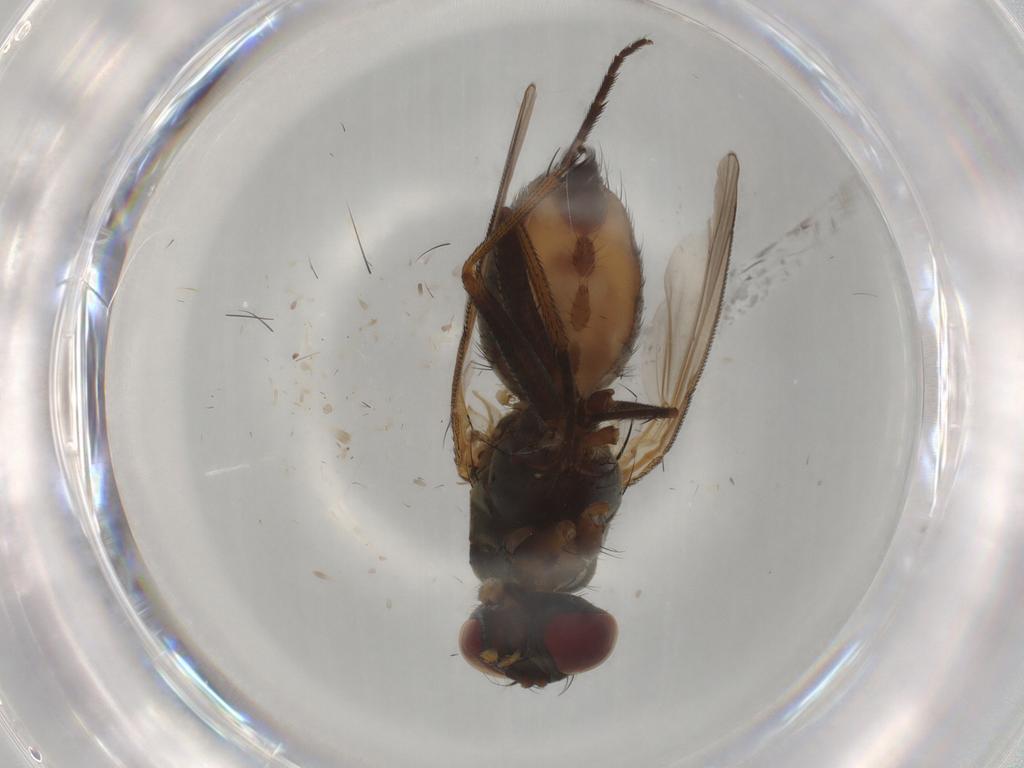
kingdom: Animalia
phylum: Arthropoda
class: Insecta
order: Diptera
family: Muscidae
